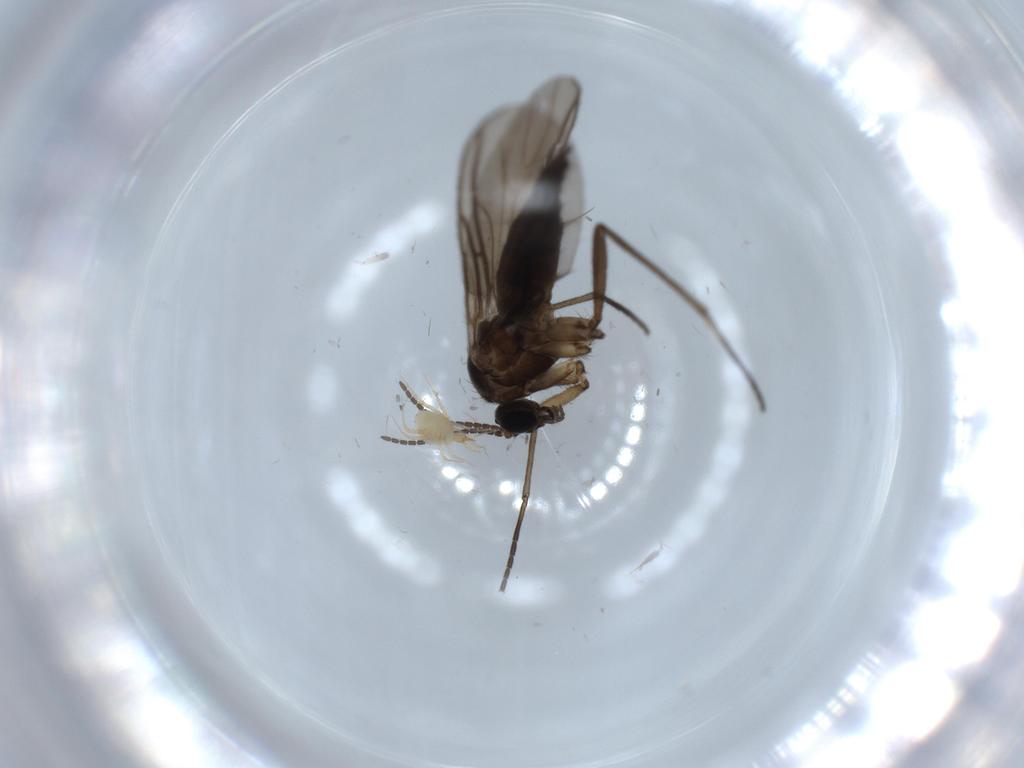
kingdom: Animalia
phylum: Arthropoda
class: Insecta
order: Diptera
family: Sciaridae
